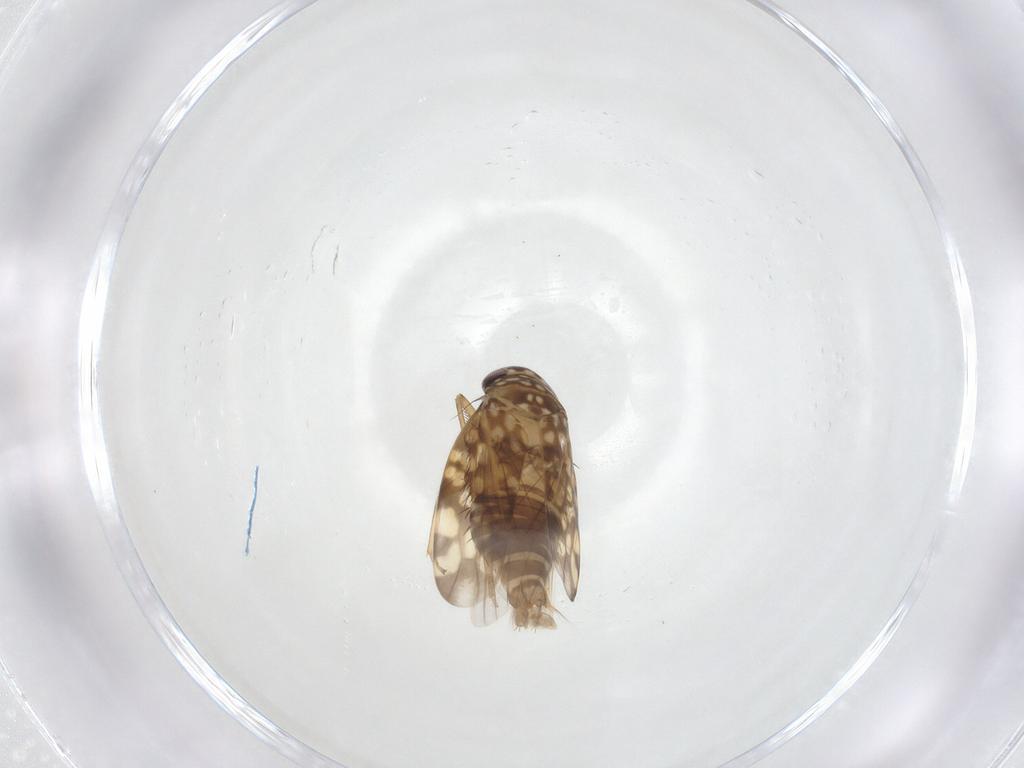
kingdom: Animalia
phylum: Arthropoda
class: Insecta
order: Hemiptera
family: Cicadellidae
